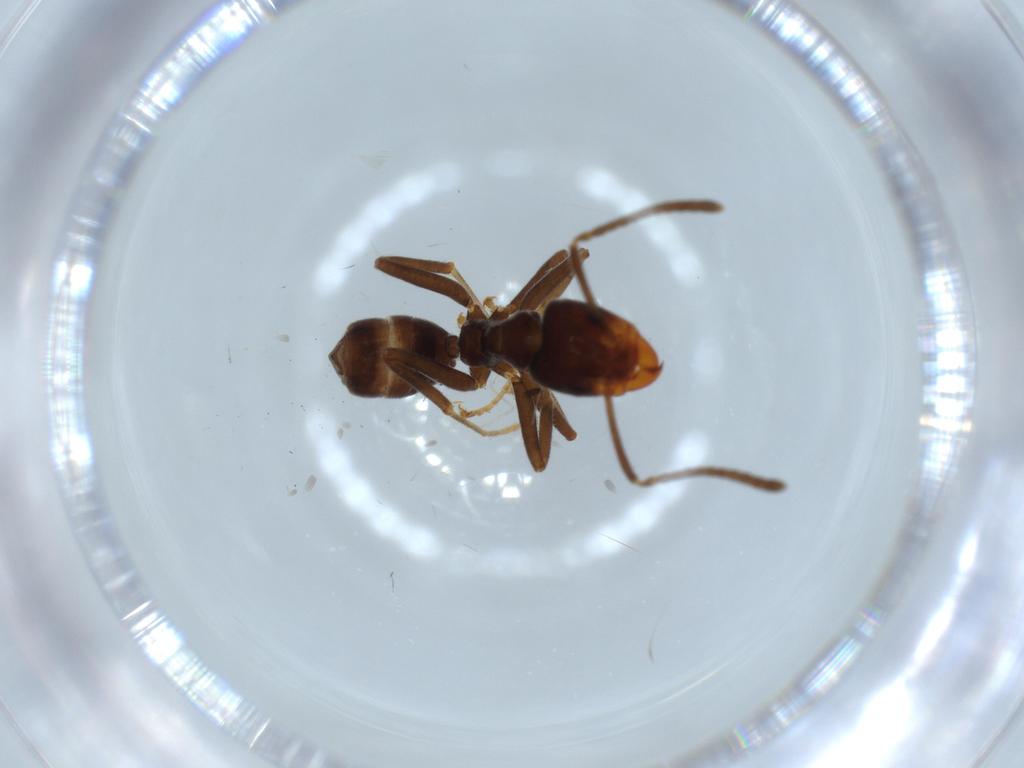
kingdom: Animalia
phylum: Arthropoda
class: Insecta
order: Hymenoptera
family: Formicidae
